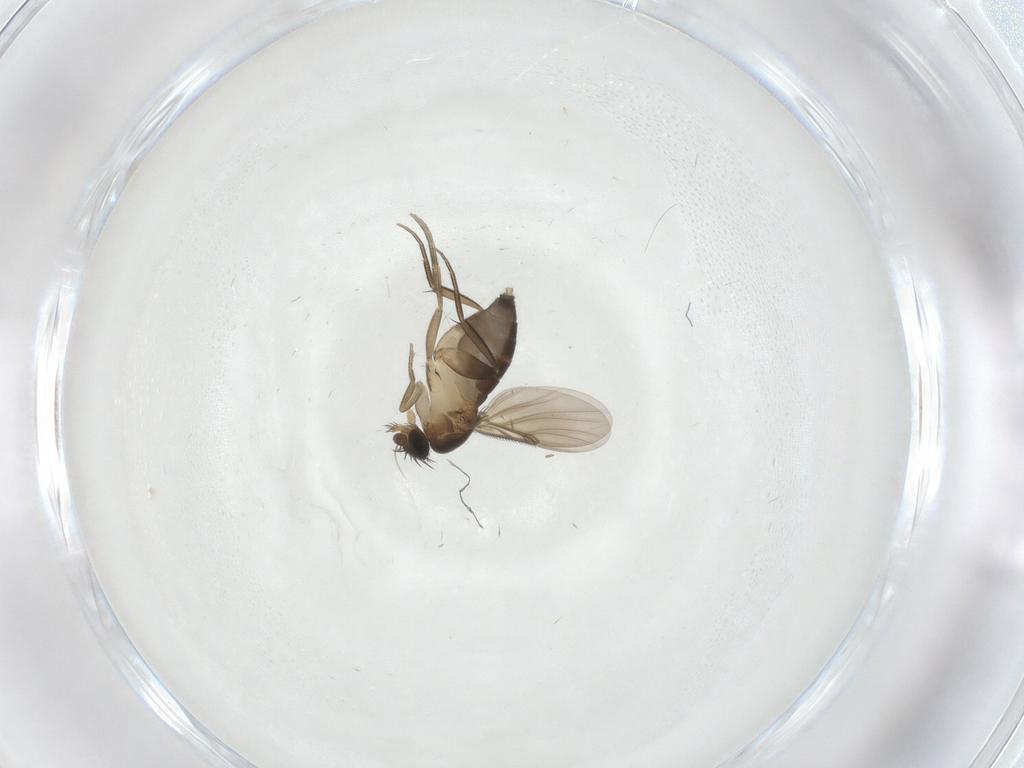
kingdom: Animalia
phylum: Arthropoda
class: Insecta
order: Diptera
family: Phoridae
